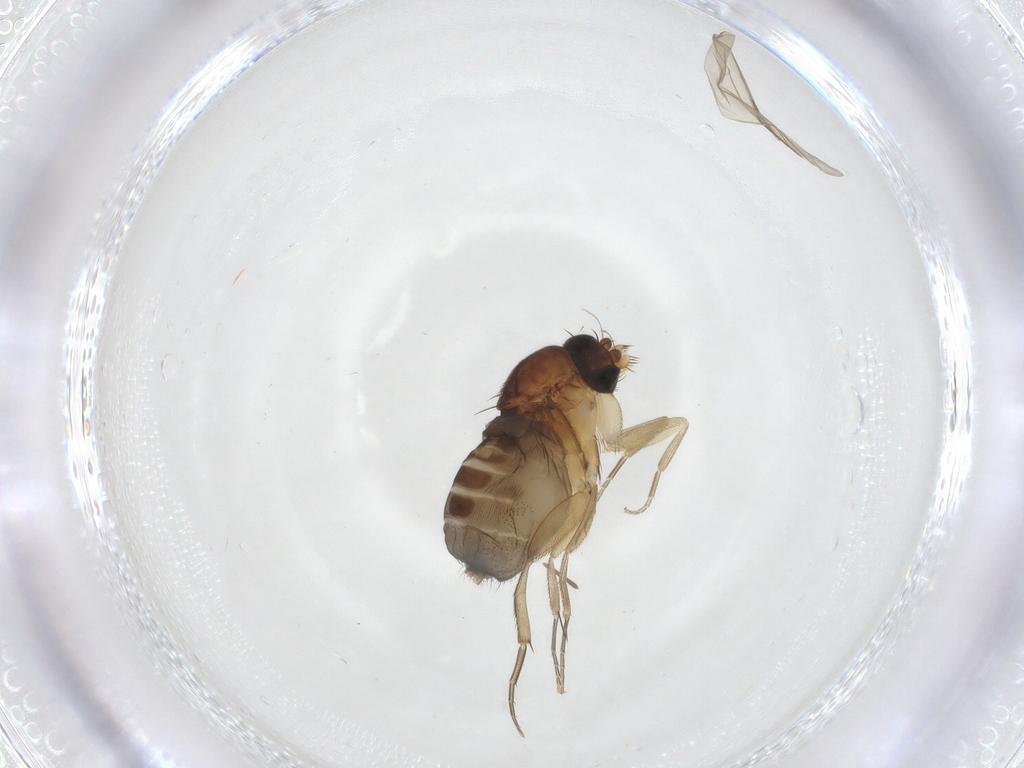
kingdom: Animalia
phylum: Arthropoda
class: Insecta
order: Diptera
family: Phoridae
